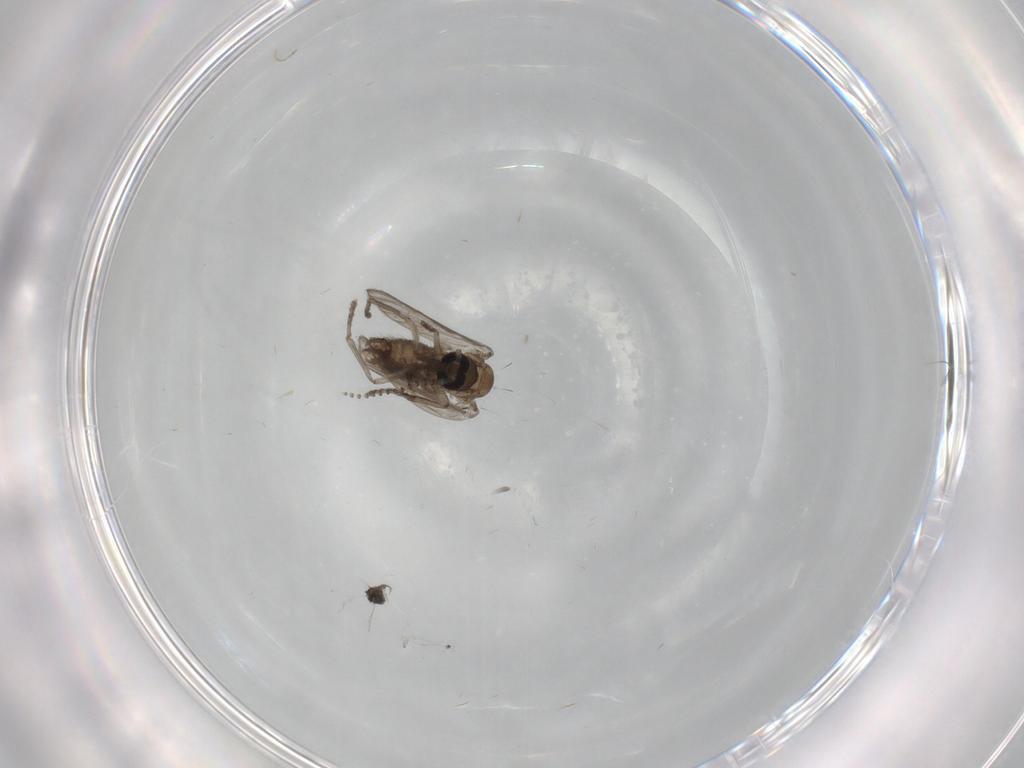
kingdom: Animalia
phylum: Arthropoda
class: Insecta
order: Diptera
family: Psychodidae
